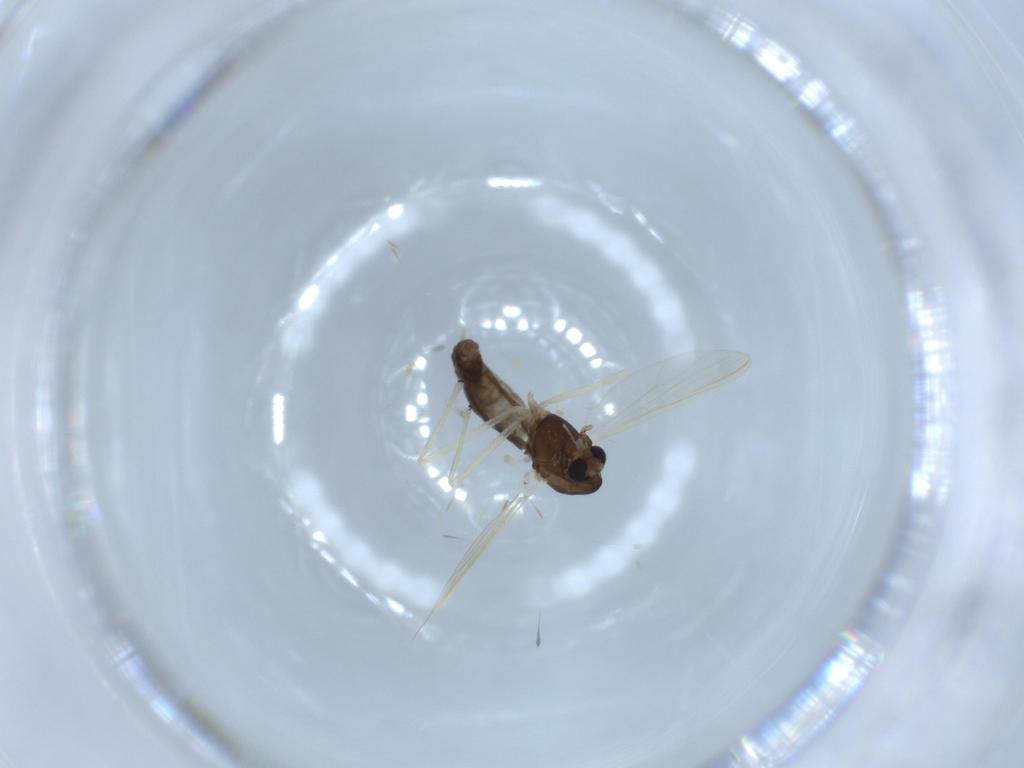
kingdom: Animalia
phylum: Arthropoda
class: Insecta
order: Diptera
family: Chironomidae
